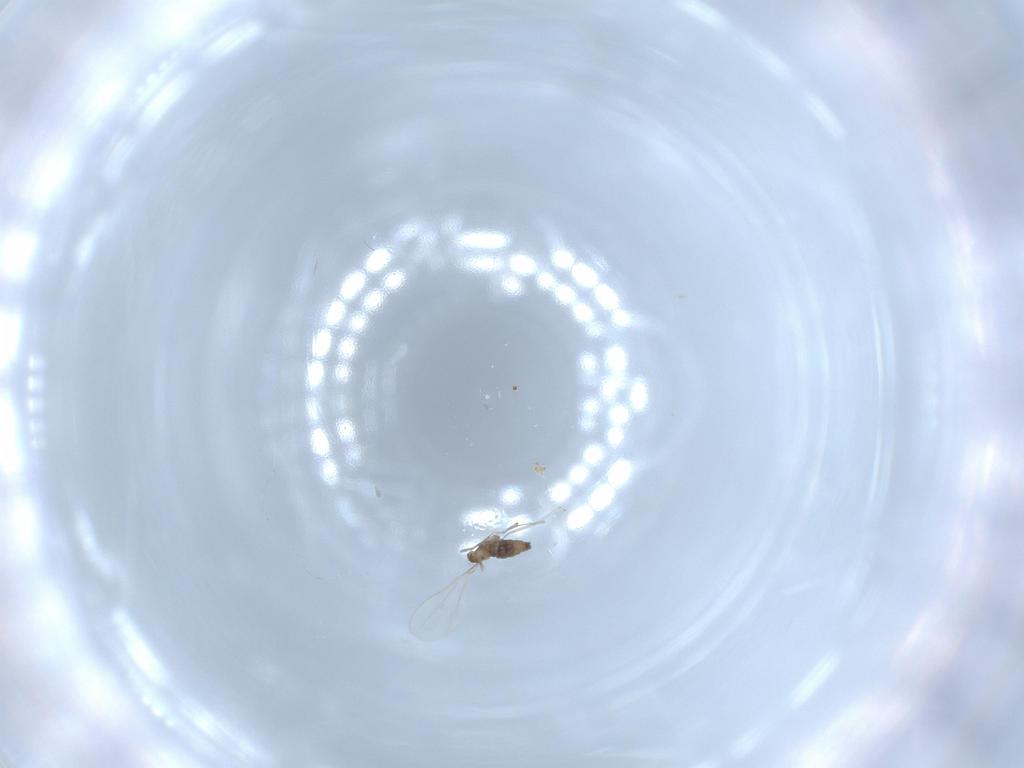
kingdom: Animalia
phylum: Arthropoda
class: Insecta
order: Diptera
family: Cecidomyiidae
